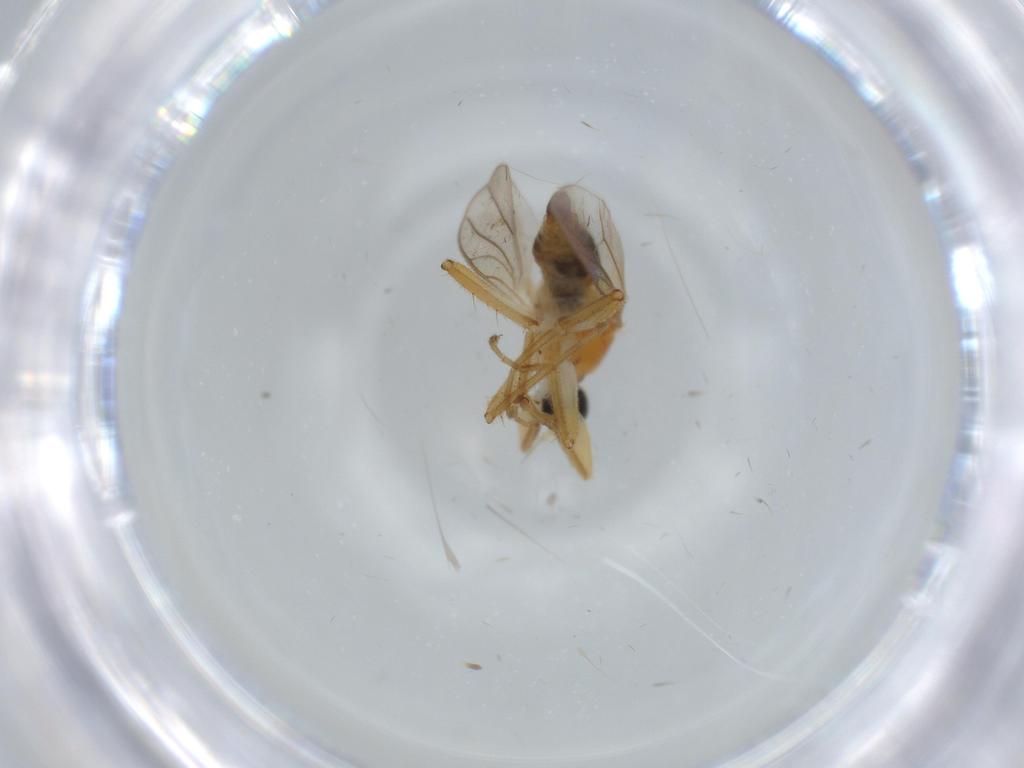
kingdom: Animalia
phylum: Arthropoda
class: Insecta
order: Diptera
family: Hybotidae
